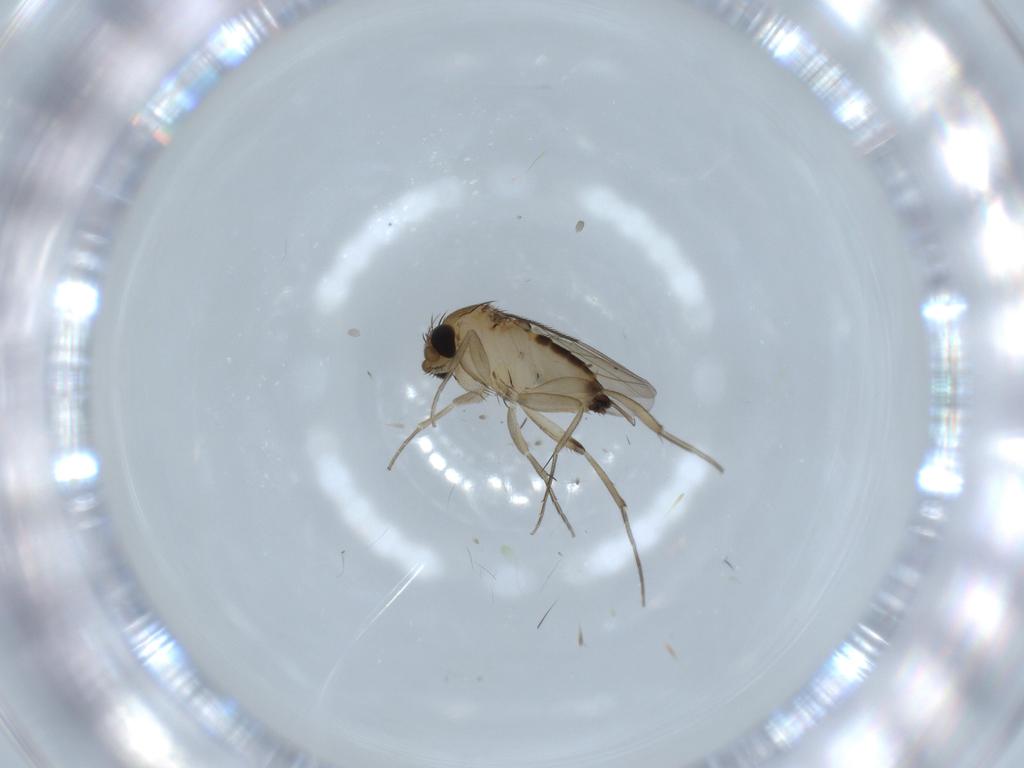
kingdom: Animalia
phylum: Arthropoda
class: Insecta
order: Diptera
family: Phoridae
